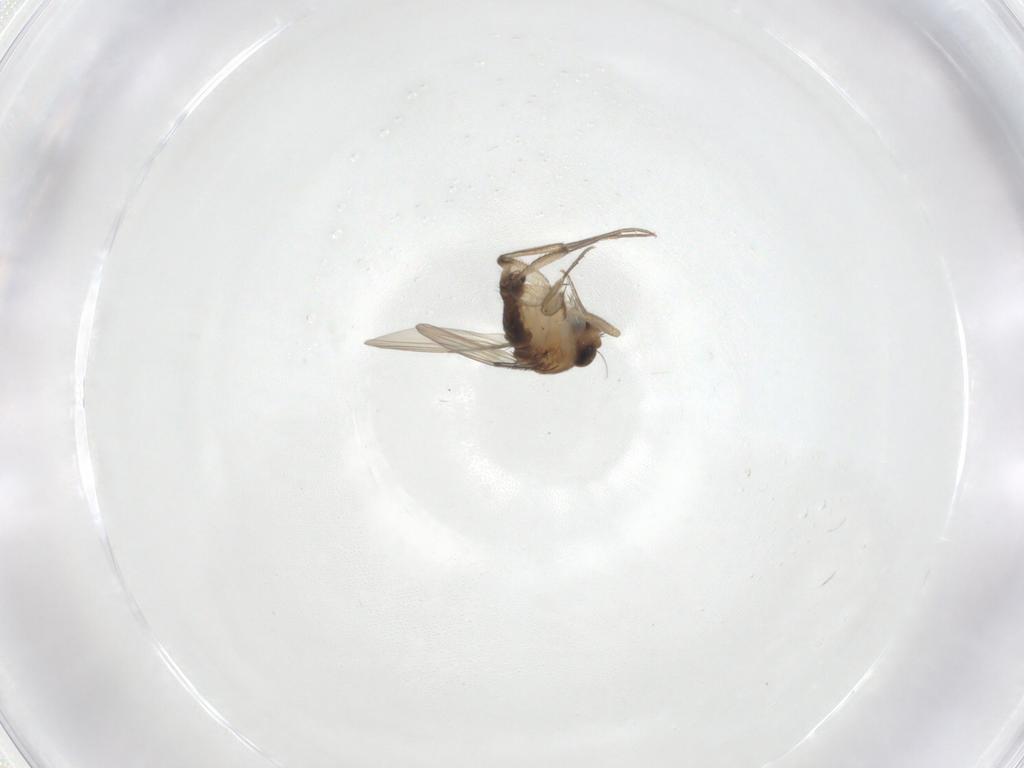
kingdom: Animalia
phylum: Arthropoda
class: Insecta
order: Diptera
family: Phoridae
